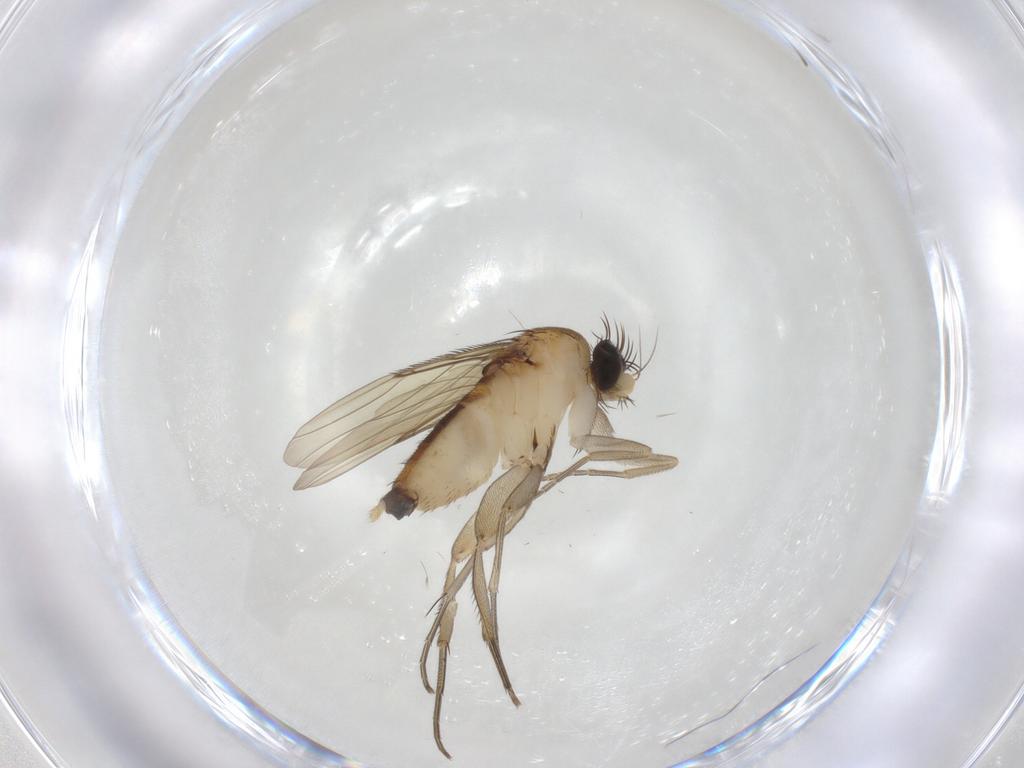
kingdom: Animalia
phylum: Arthropoda
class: Insecta
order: Diptera
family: Phoridae
